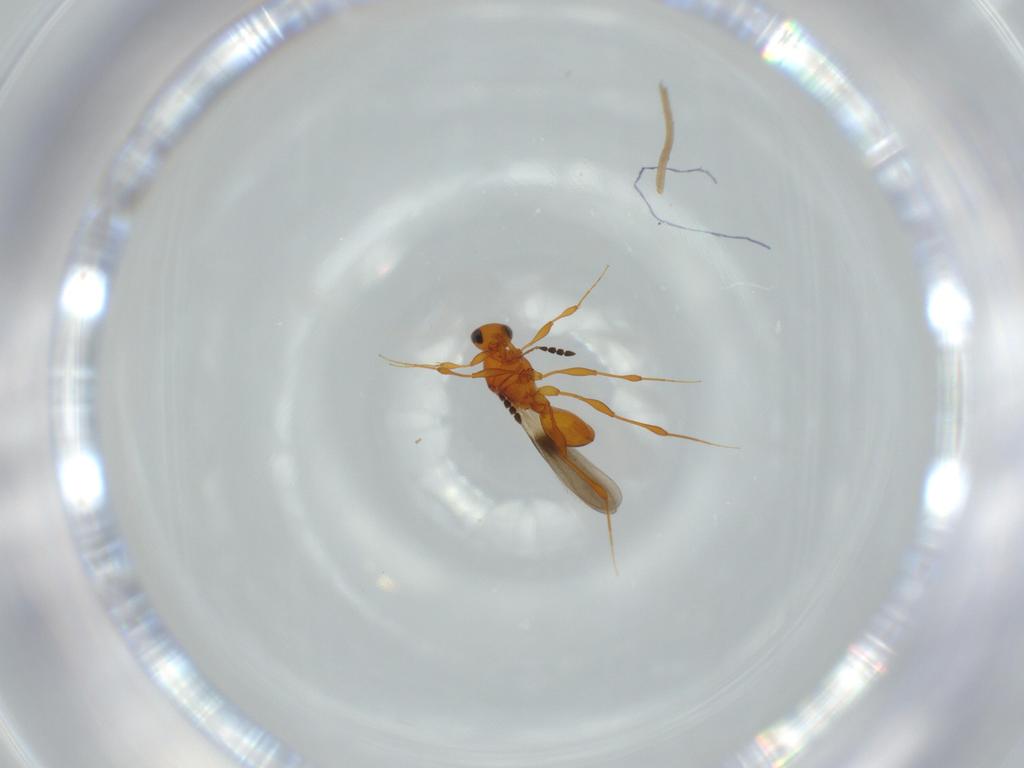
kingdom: Animalia
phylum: Arthropoda
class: Insecta
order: Hymenoptera
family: Platygastridae
